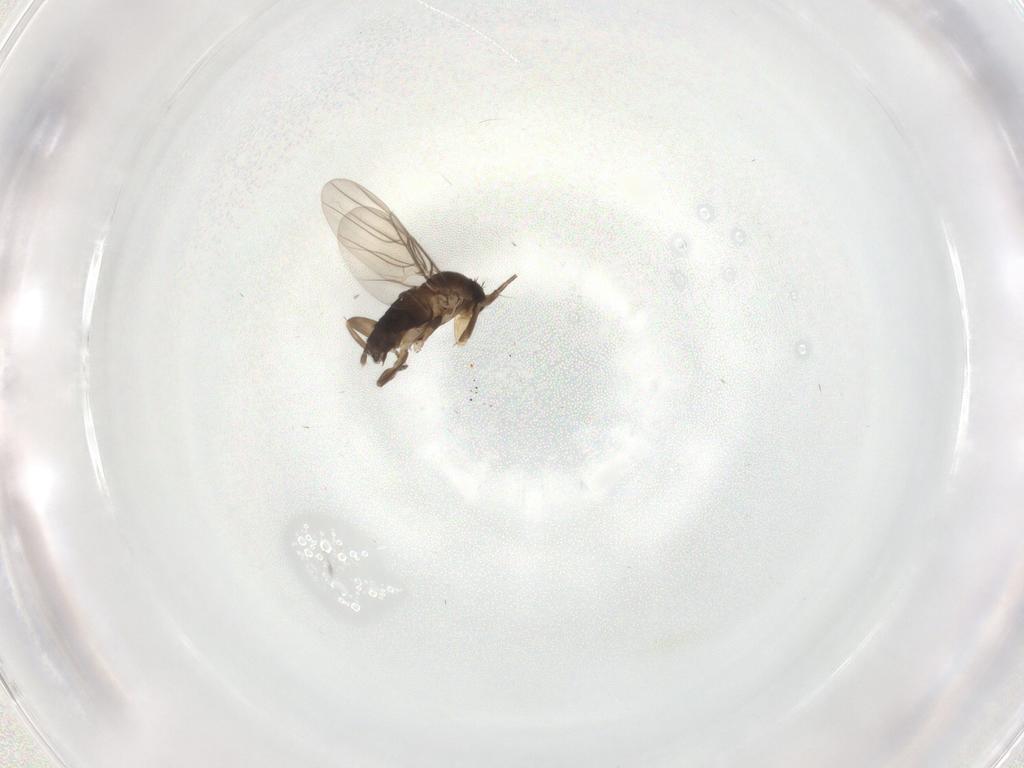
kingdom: Animalia
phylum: Arthropoda
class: Insecta
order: Diptera
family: Phoridae
